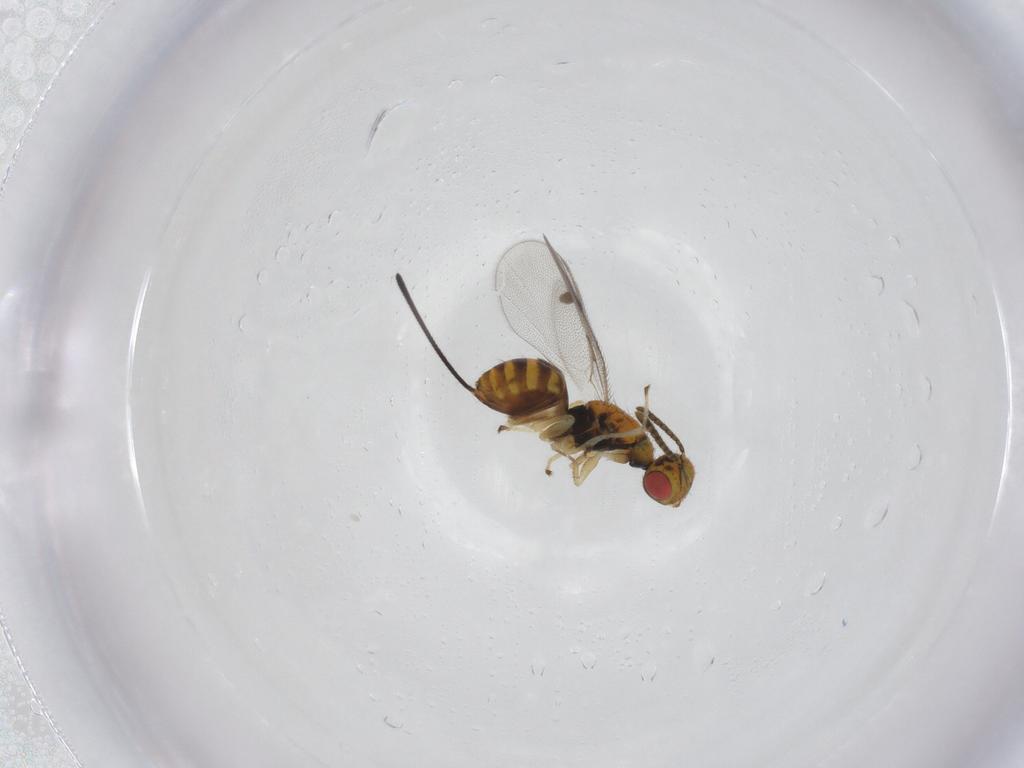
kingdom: Animalia
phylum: Arthropoda
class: Insecta
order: Hymenoptera
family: Megastigmidae
